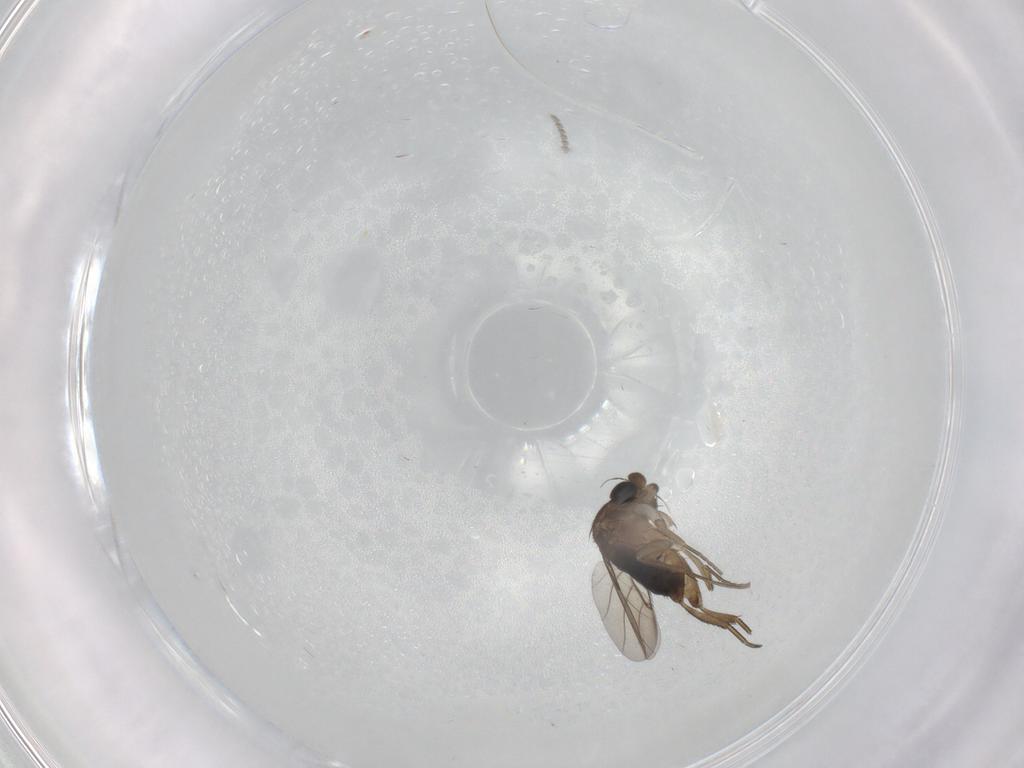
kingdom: Animalia
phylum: Arthropoda
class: Insecta
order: Diptera
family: Phoridae
